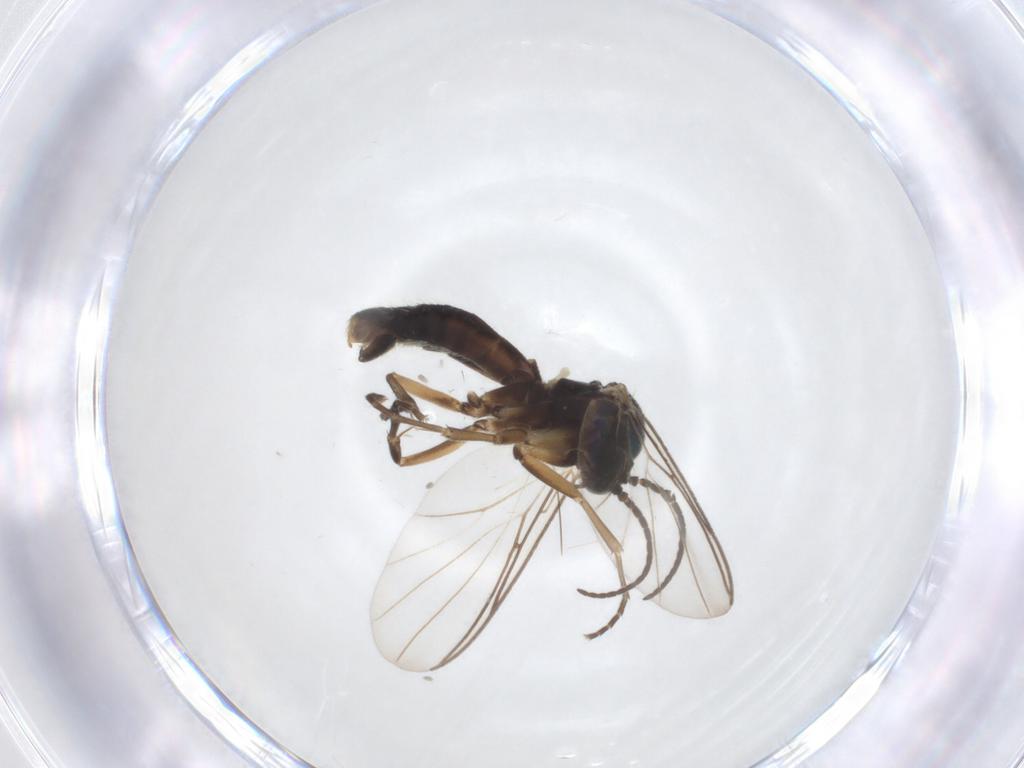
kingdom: Animalia
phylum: Arthropoda
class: Insecta
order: Diptera
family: Mycetophilidae
